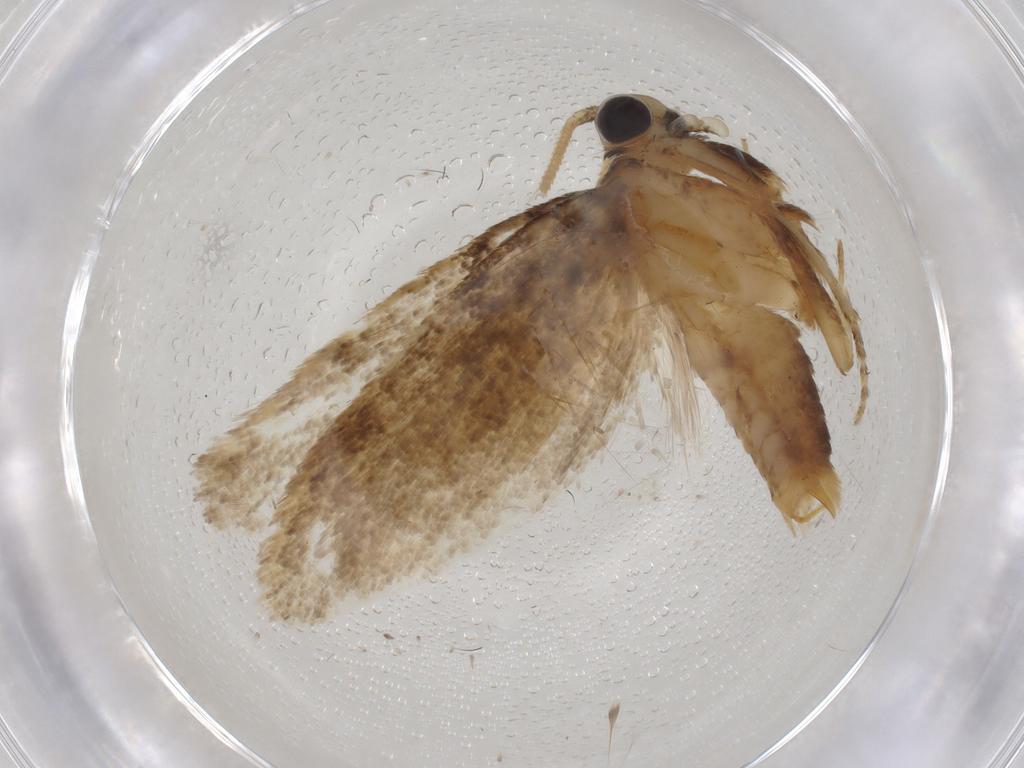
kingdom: Animalia
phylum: Arthropoda
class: Insecta
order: Lepidoptera
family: Tineidae
